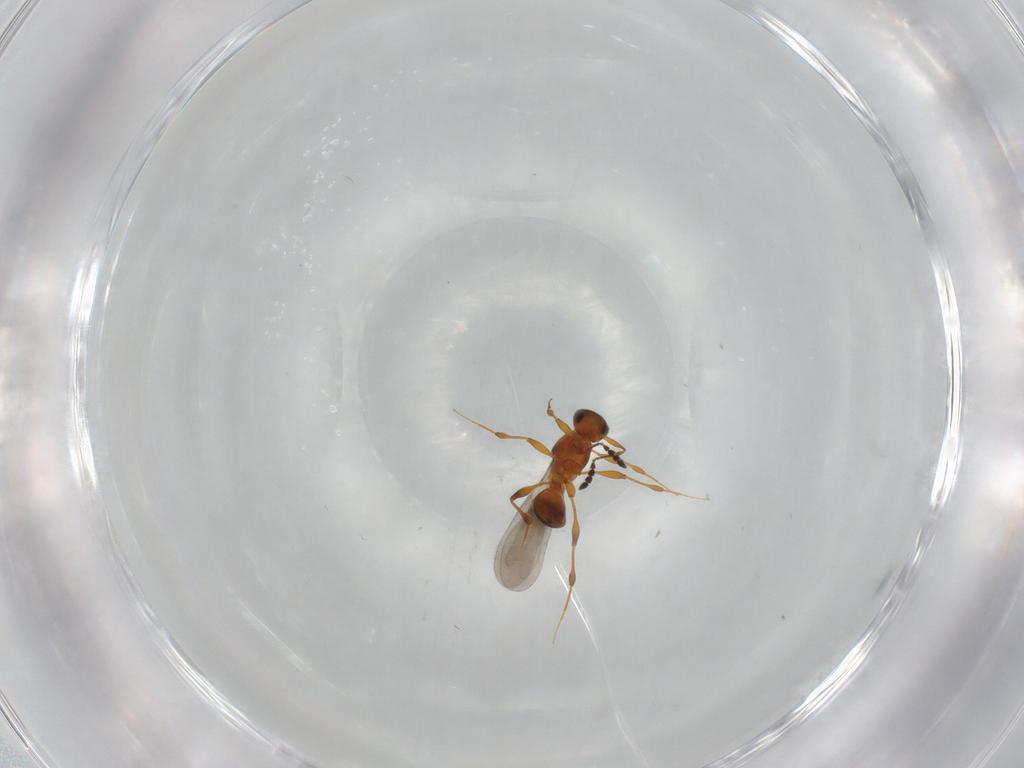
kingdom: Animalia
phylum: Arthropoda
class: Insecta
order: Hymenoptera
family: Platygastridae
